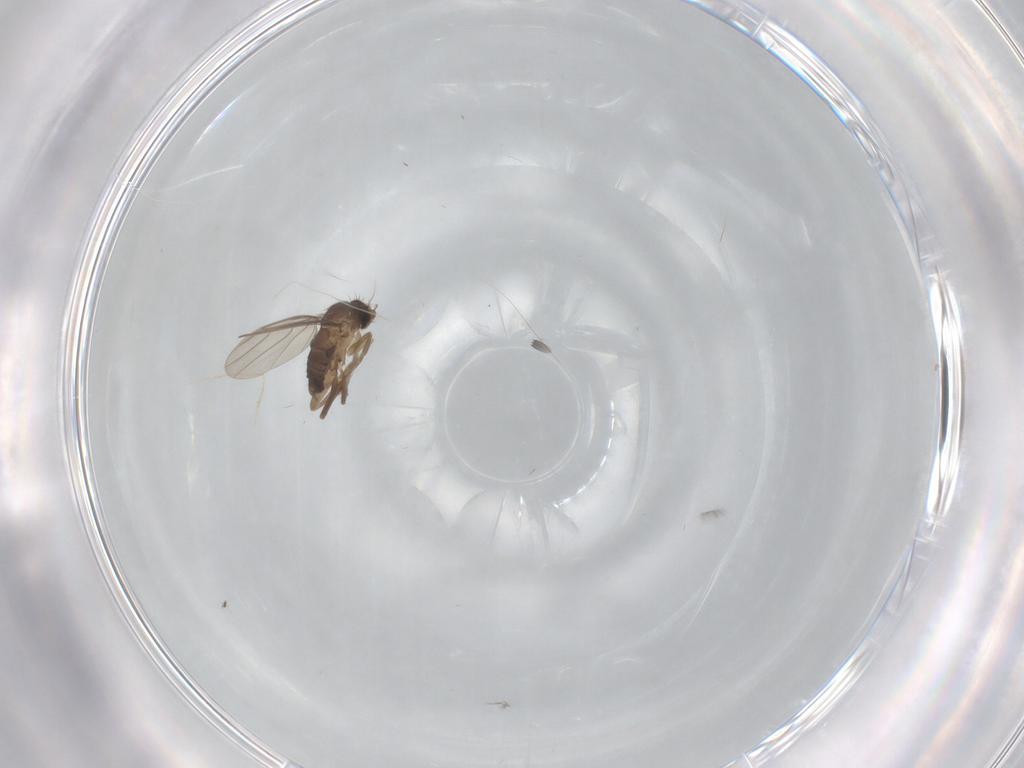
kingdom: Animalia
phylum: Arthropoda
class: Insecta
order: Diptera
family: Phoridae
